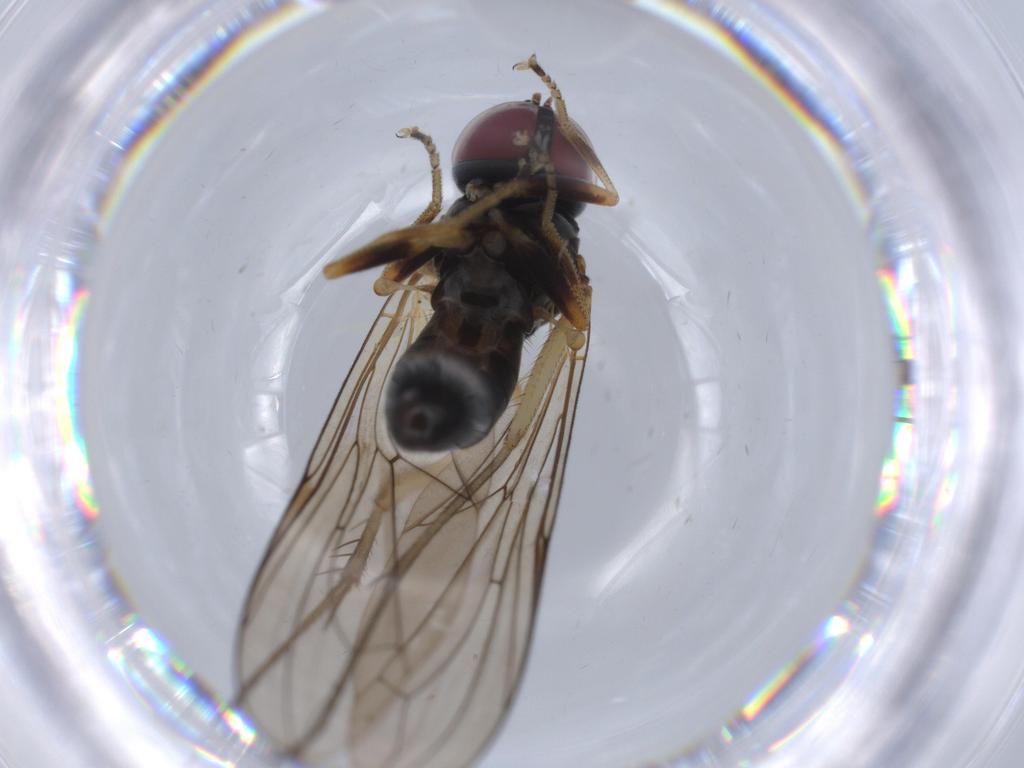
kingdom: Animalia
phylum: Arthropoda
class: Insecta
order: Diptera
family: Pipunculidae
